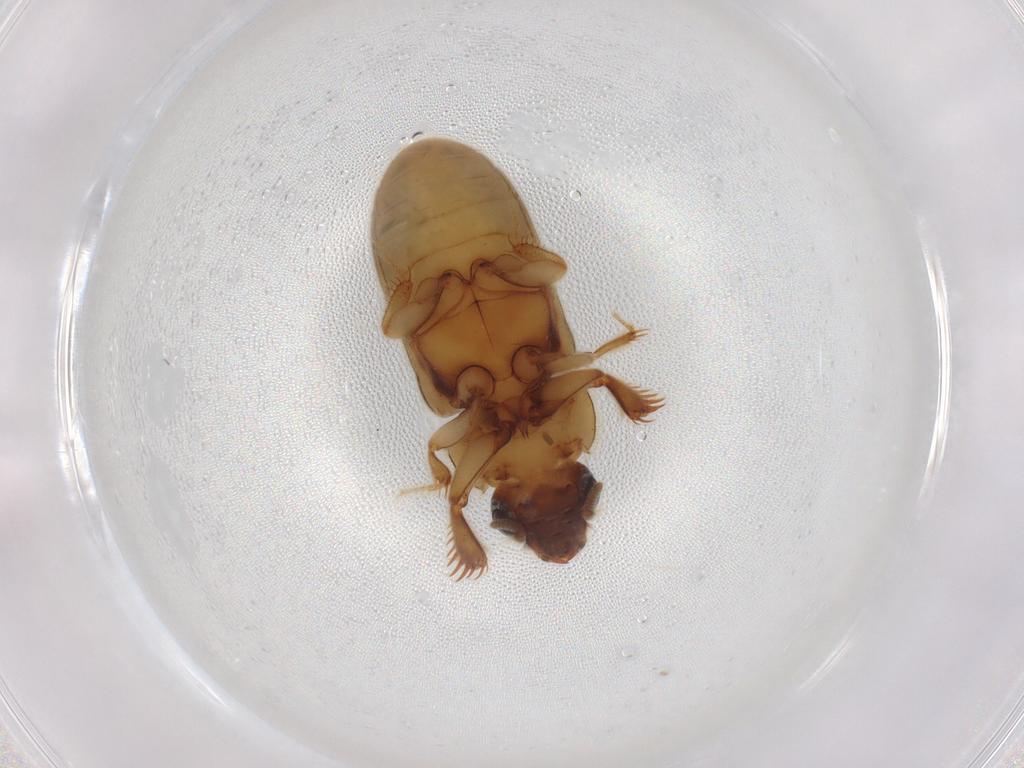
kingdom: Animalia
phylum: Arthropoda
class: Insecta
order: Coleoptera
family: Heteroceridae
